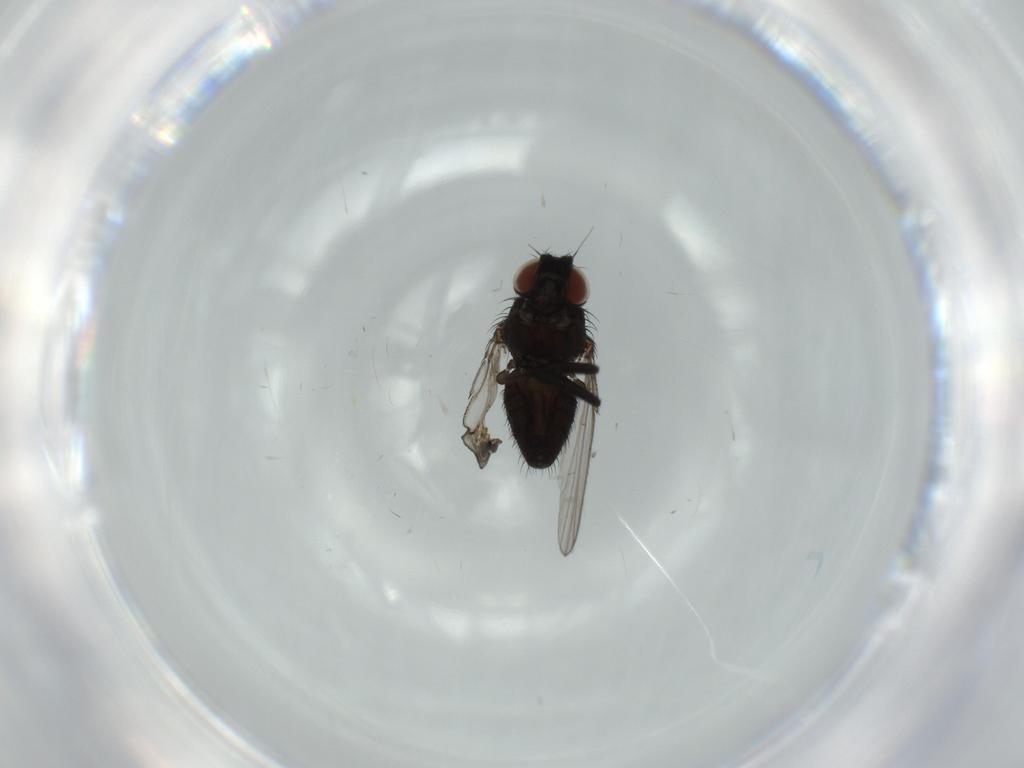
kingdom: Animalia
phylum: Arthropoda
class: Insecta
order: Diptera
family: Milichiidae
